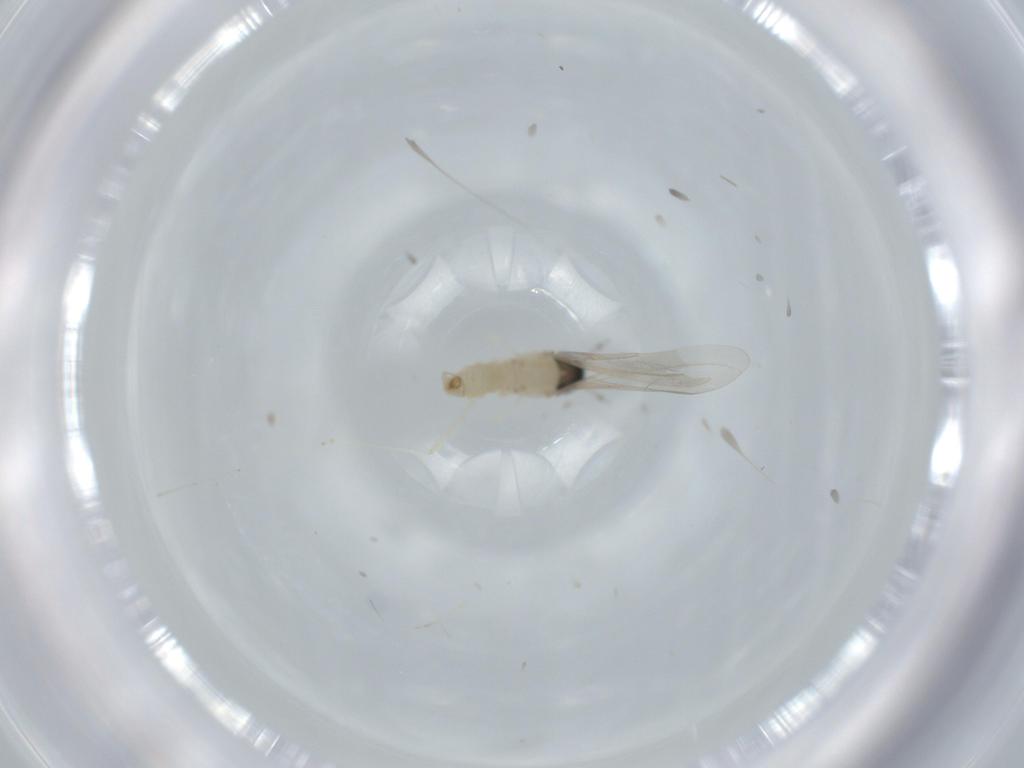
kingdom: Animalia
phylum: Arthropoda
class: Insecta
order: Diptera
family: Cecidomyiidae
